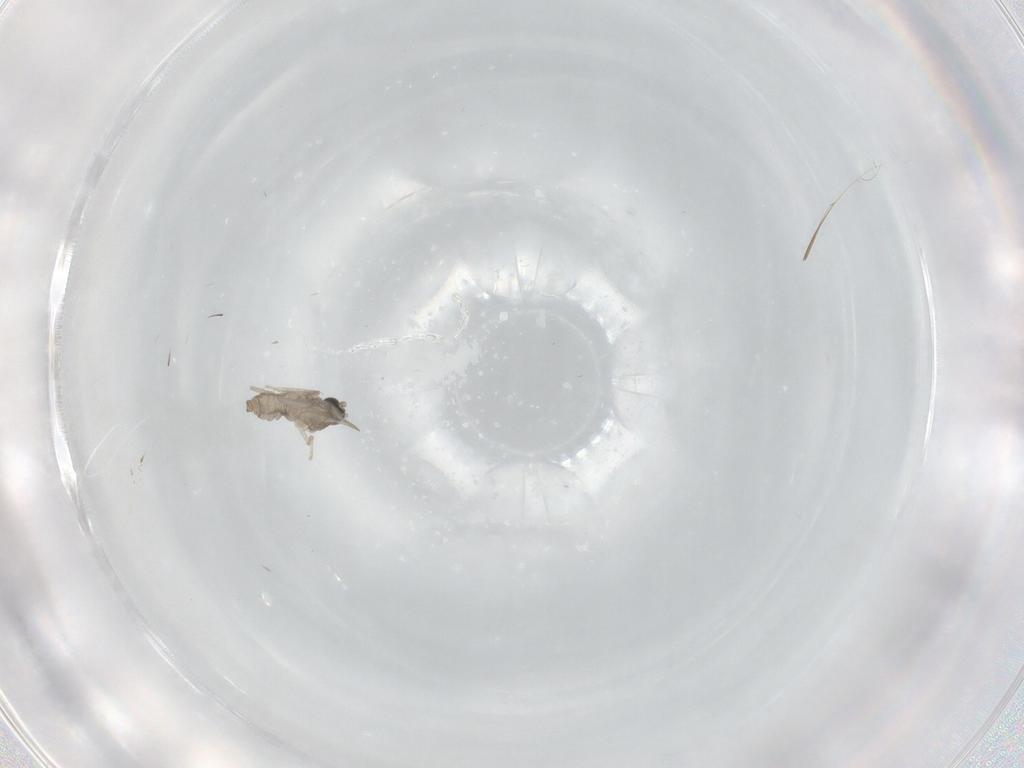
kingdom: Animalia
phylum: Arthropoda
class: Insecta
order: Diptera
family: Cecidomyiidae
